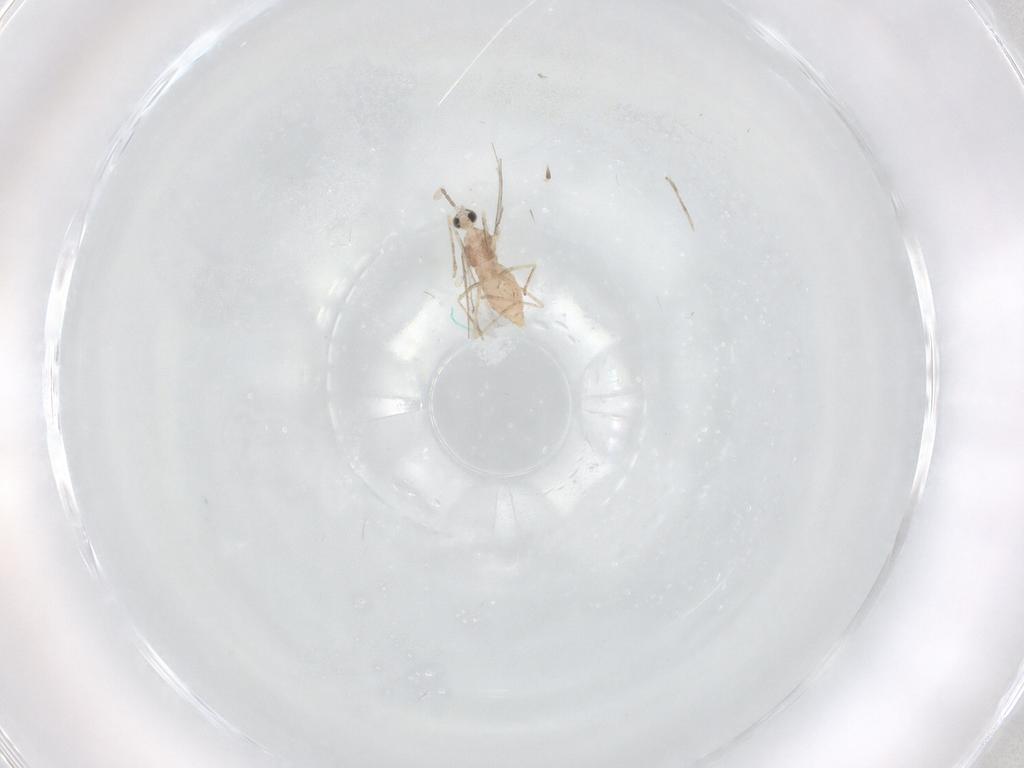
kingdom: Animalia
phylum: Arthropoda
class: Insecta
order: Diptera
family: Cecidomyiidae
